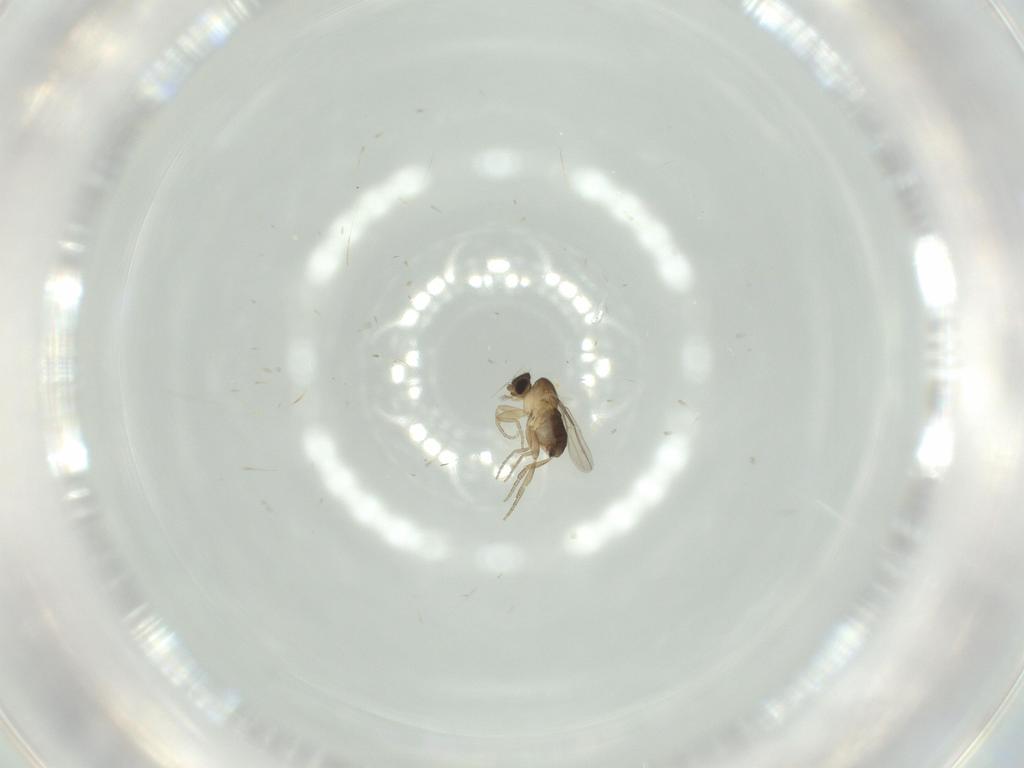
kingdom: Animalia
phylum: Arthropoda
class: Insecta
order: Diptera
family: Phoridae
